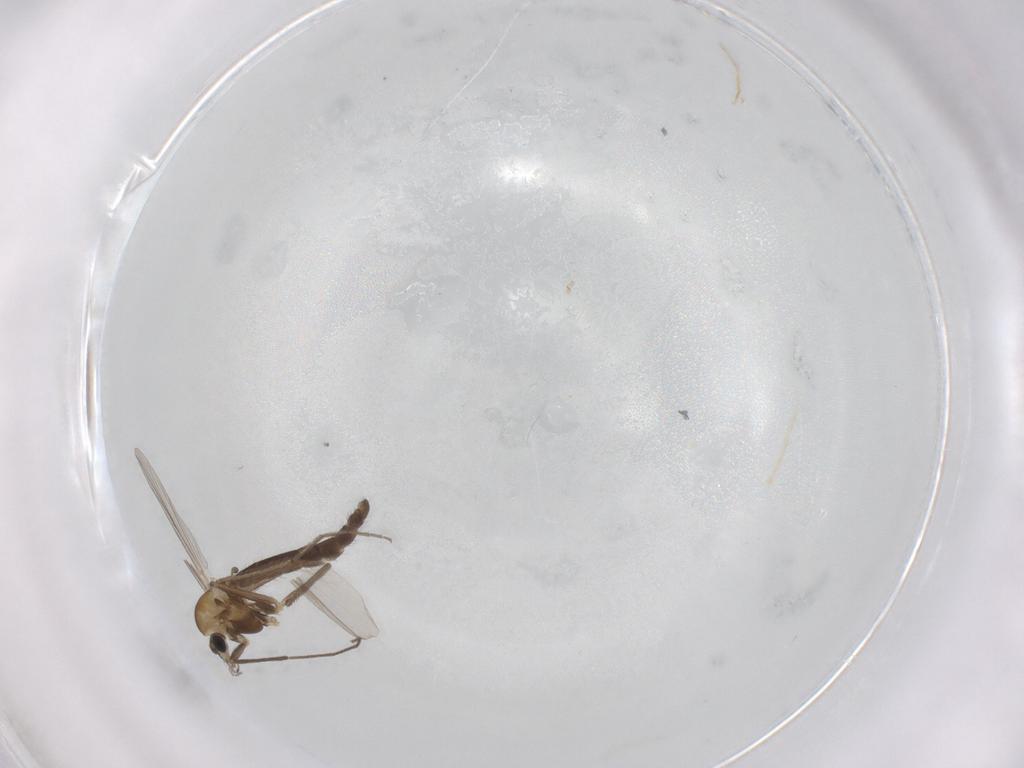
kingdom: Animalia
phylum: Arthropoda
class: Insecta
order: Diptera
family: Chironomidae
